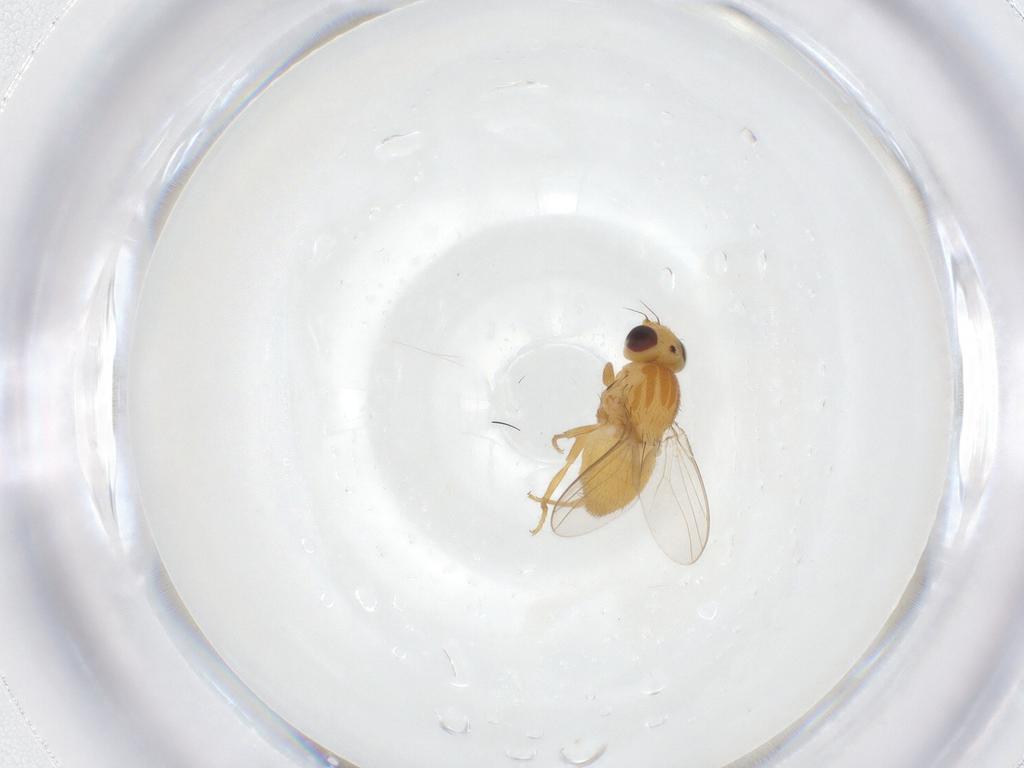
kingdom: Animalia
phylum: Arthropoda
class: Insecta
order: Diptera
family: Chloropidae
